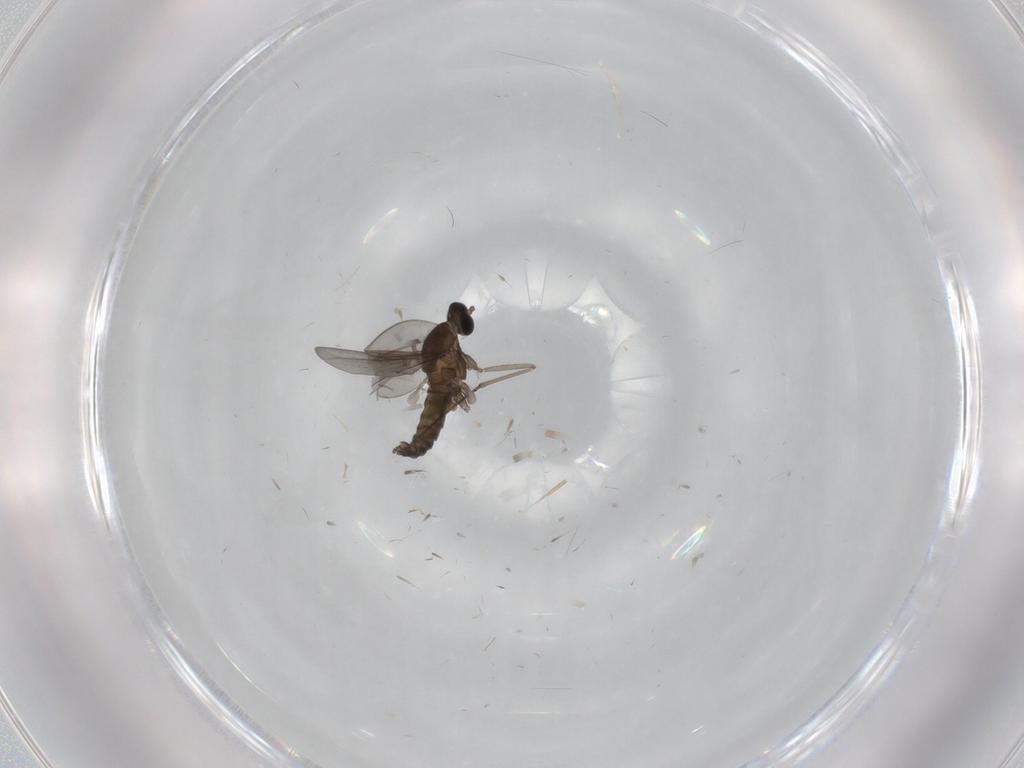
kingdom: Animalia
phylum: Arthropoda
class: Insecta
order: Diptera
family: Cecidomyiidae
